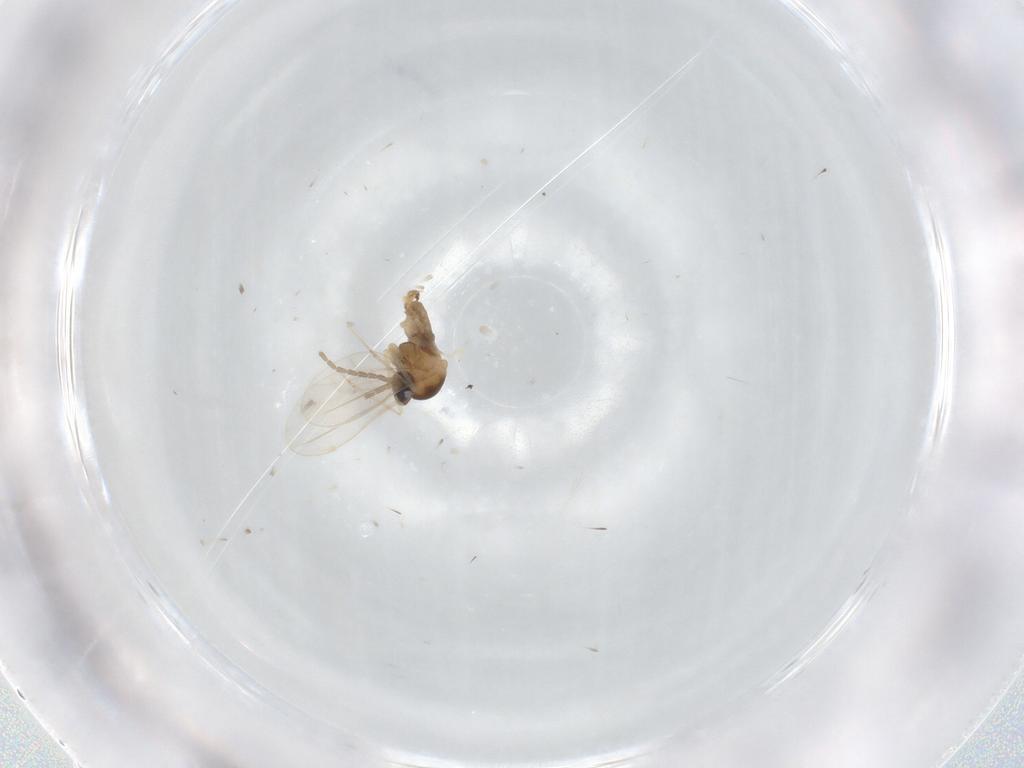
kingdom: Animalia
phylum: Arthropoda
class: Insecta
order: Diptera
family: Cecidomyiidae
